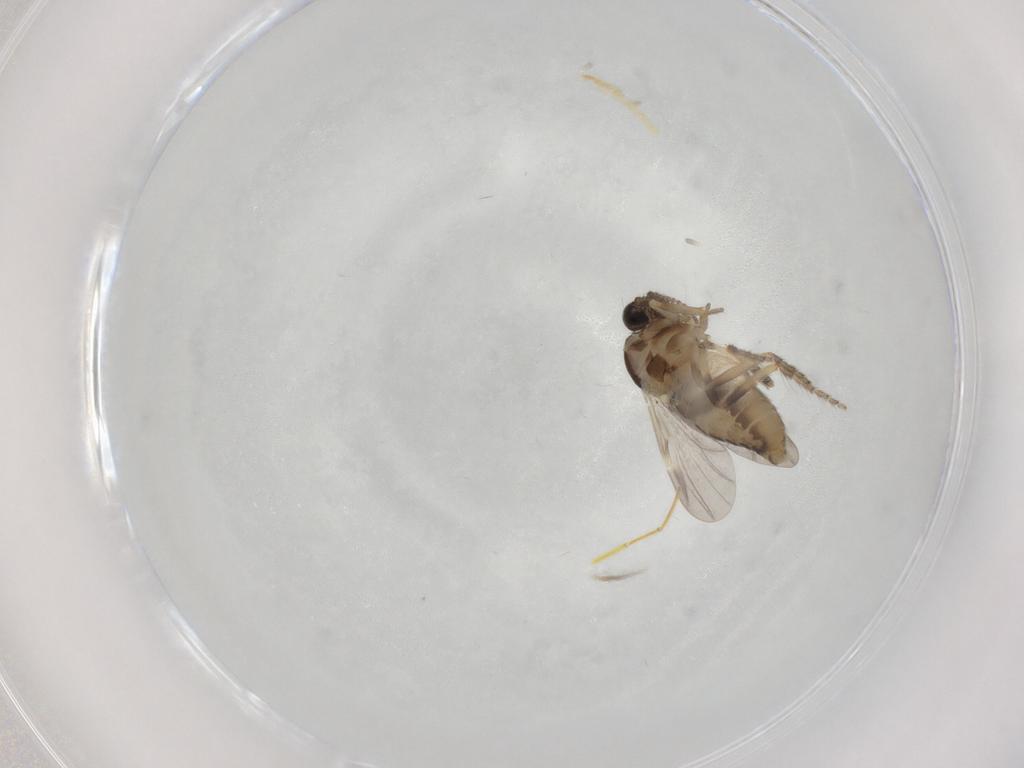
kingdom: Animalia
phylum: Arthropoda
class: Insecta
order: Diptera
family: Ceratopogonidae
